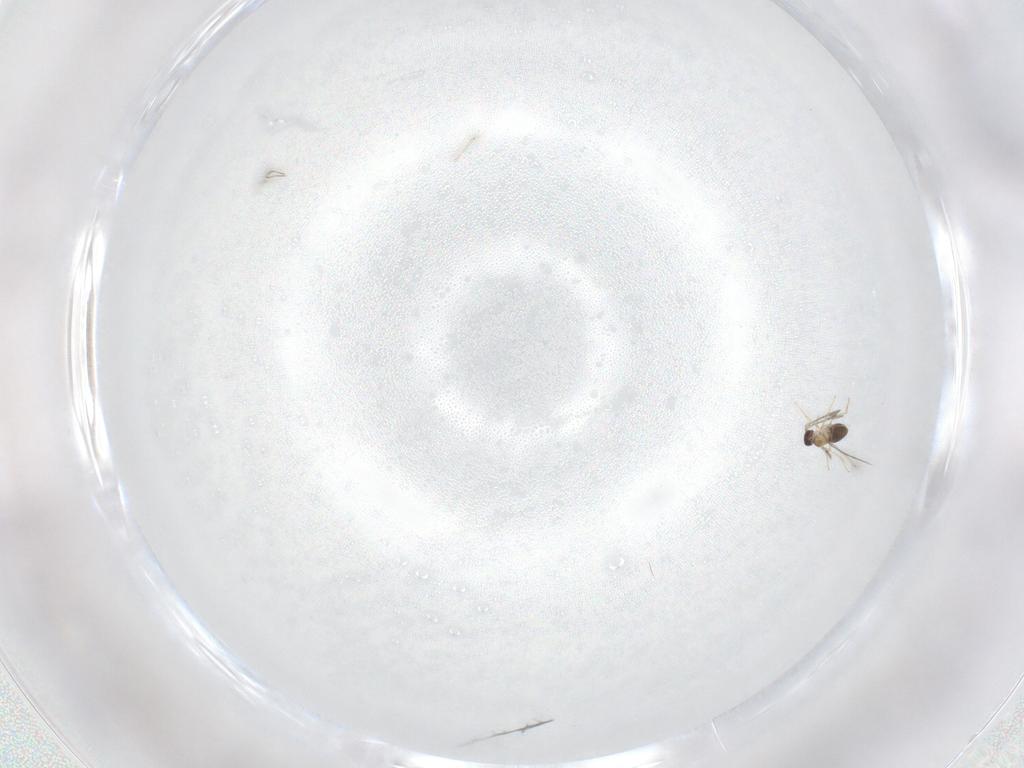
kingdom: Animalia
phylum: Arthropoda
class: Insecta
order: Hymenoptera
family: Mymaridae
